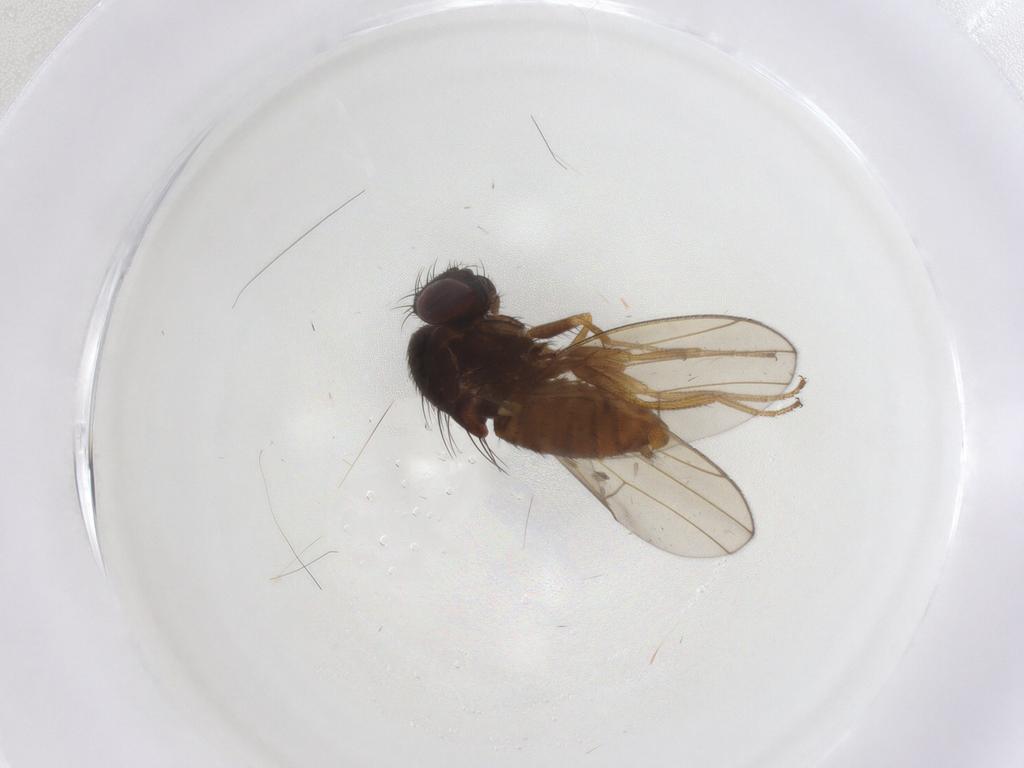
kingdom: Animalia
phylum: Arthropoda
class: Insecta
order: Diptera
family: Drosophilidae
